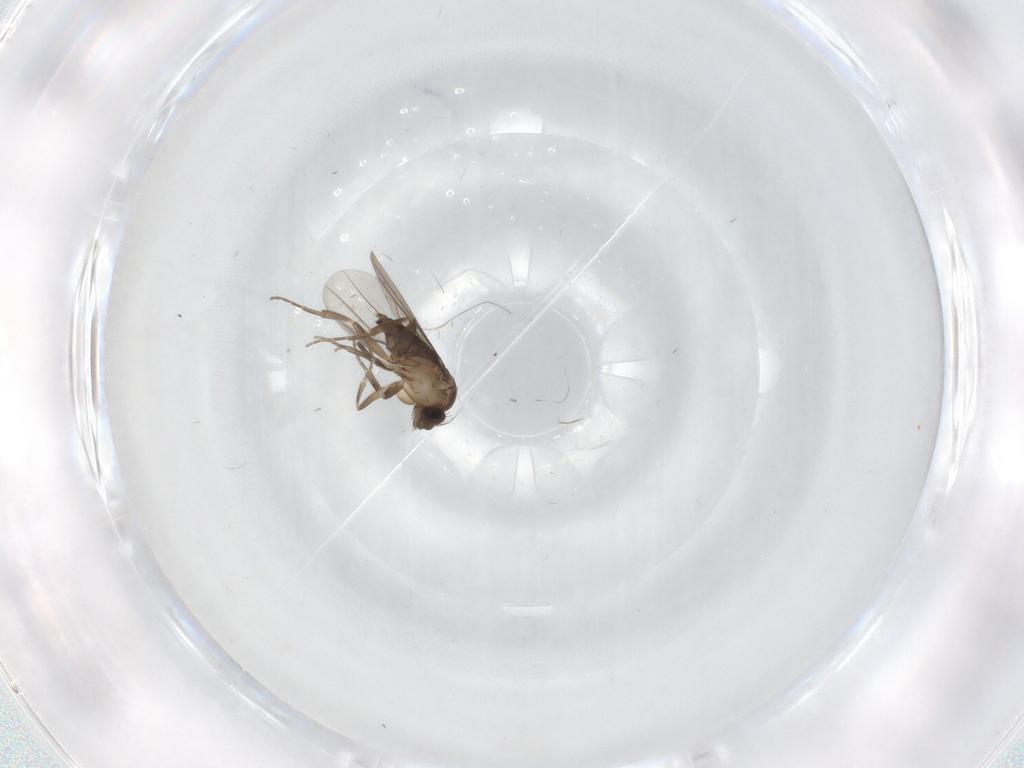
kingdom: Animalia
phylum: Arthropoda
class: Insecta
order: Diptera
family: Phoridae
